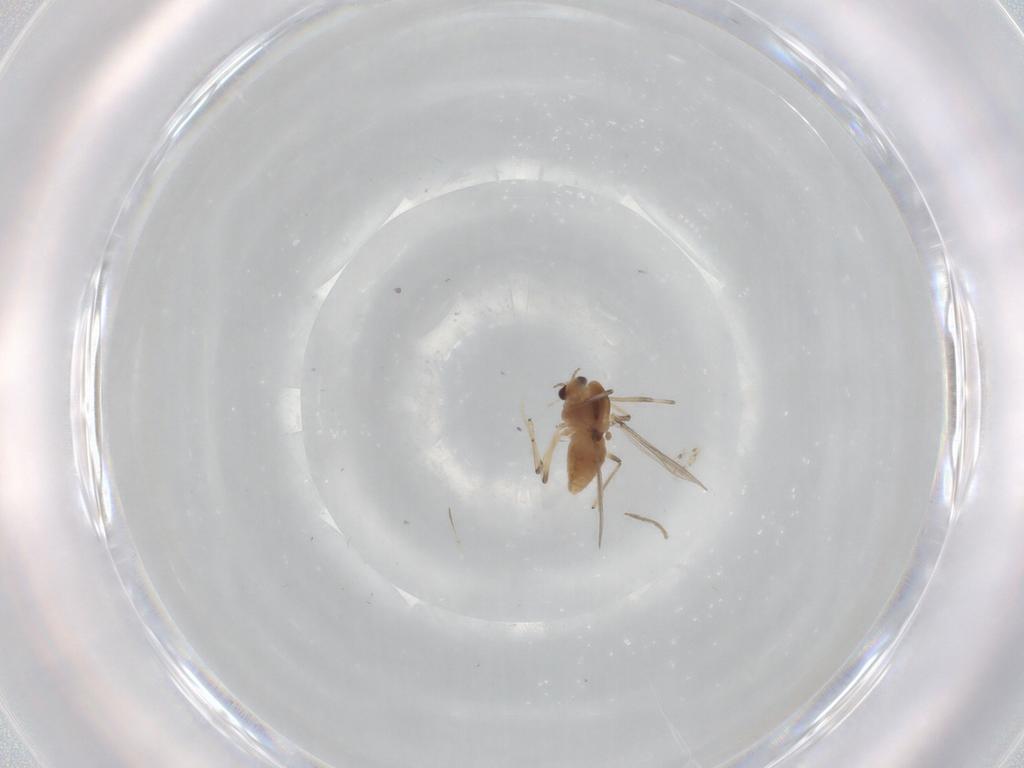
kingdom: Animalia
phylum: Arthropoda
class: Insecta
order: Diptera
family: Chironomidae
